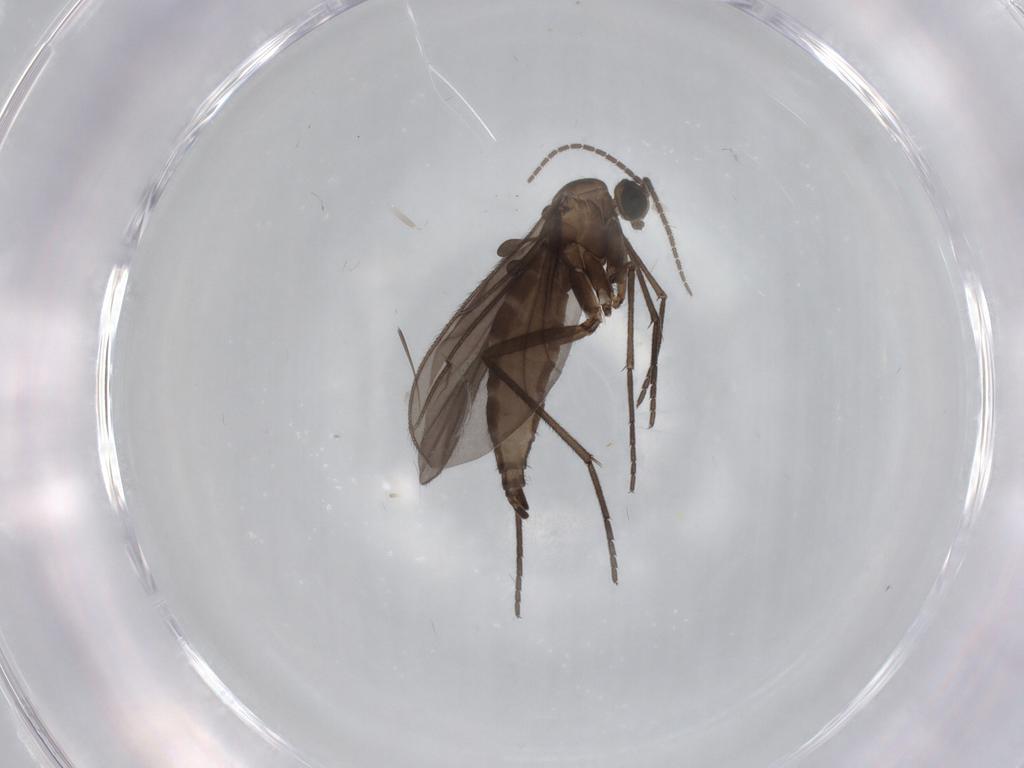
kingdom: Animalia
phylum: Arthropoda
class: Insecta
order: Diptera
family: Sciaridae
